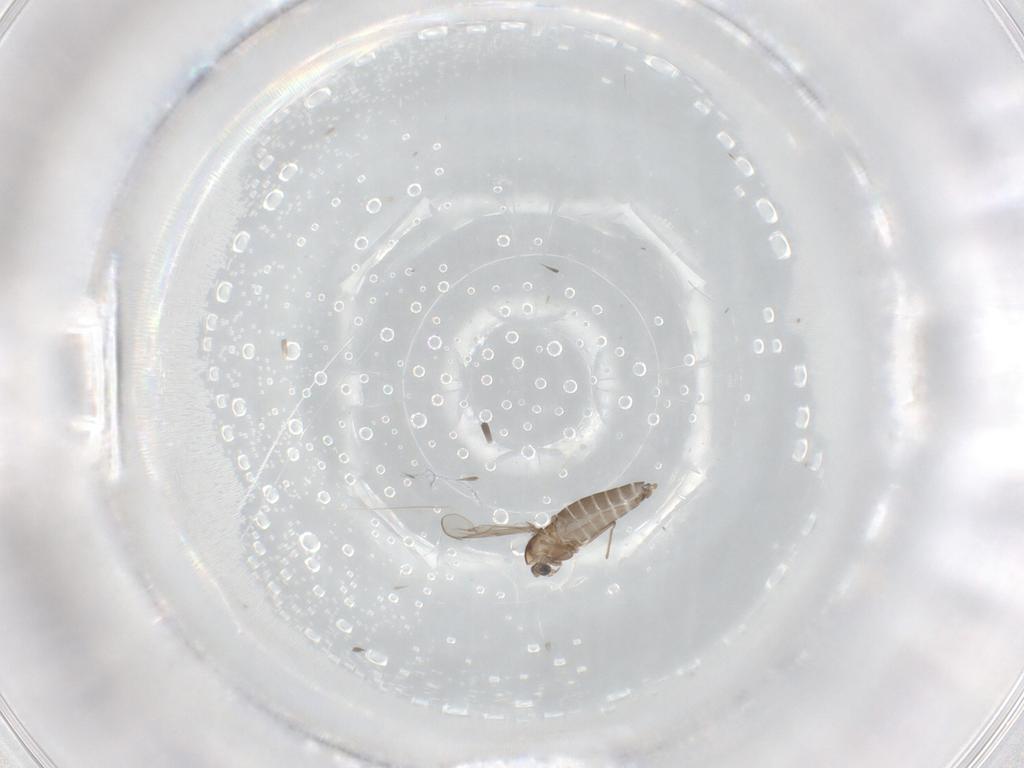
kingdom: Animalia
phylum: Arthropoda
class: Insecta
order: Diptera
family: Chironomidae
